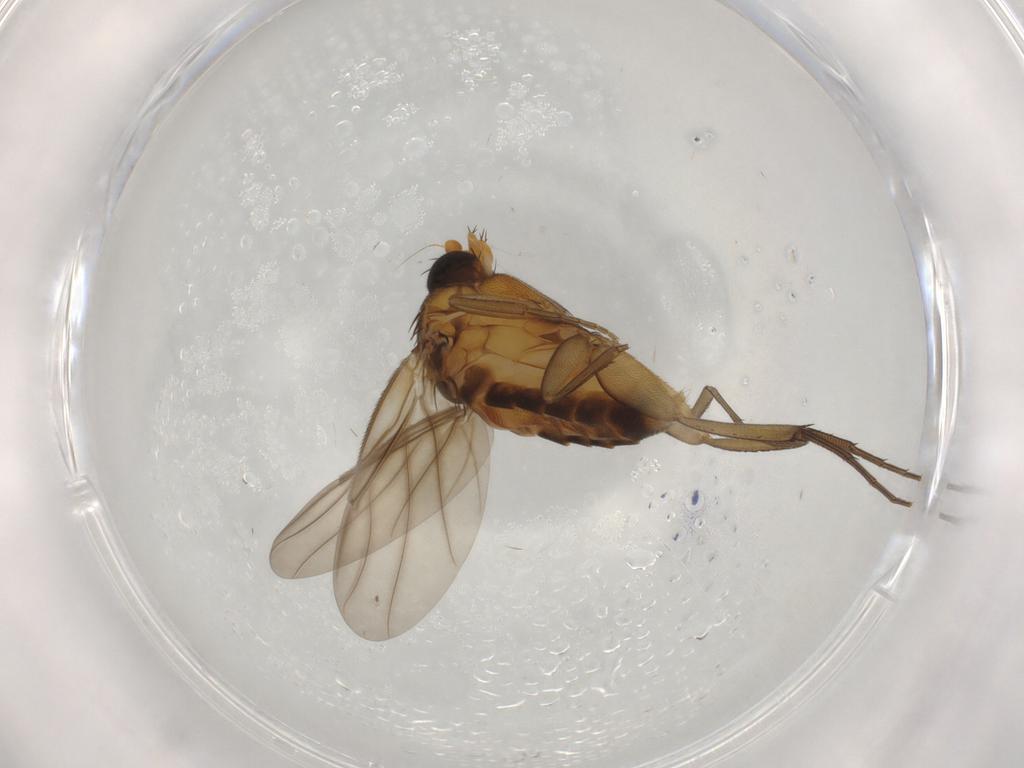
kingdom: Animalia
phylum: Arthropoda
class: Insecta
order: Diptera
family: Phoridae
